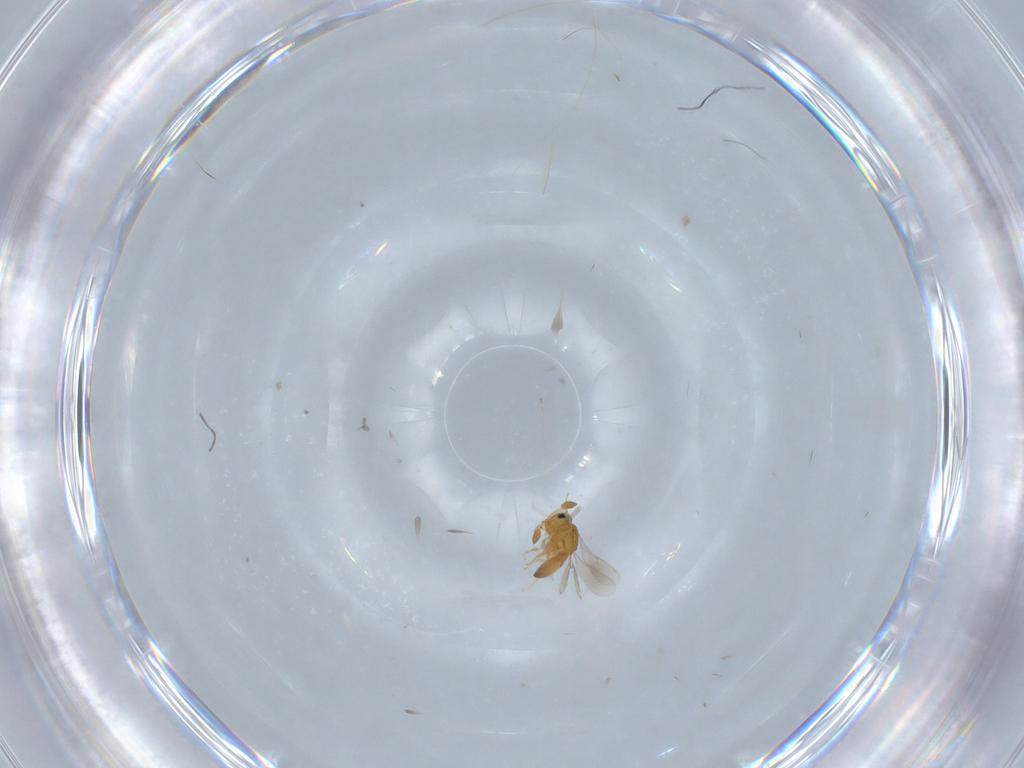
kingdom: Animalia
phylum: Arthropoda
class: Insecta
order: Hymenoptera
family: Scelionidae
